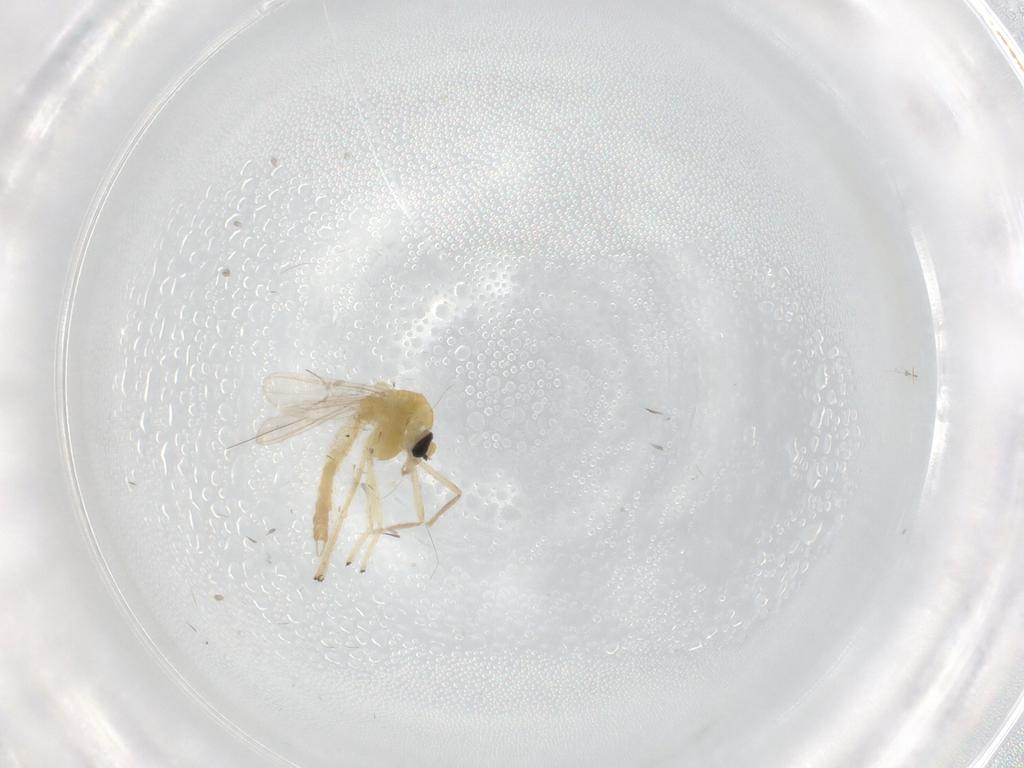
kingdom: Animalia
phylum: Arthropoda
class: Insecta
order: Diptera
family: Chironomidae
